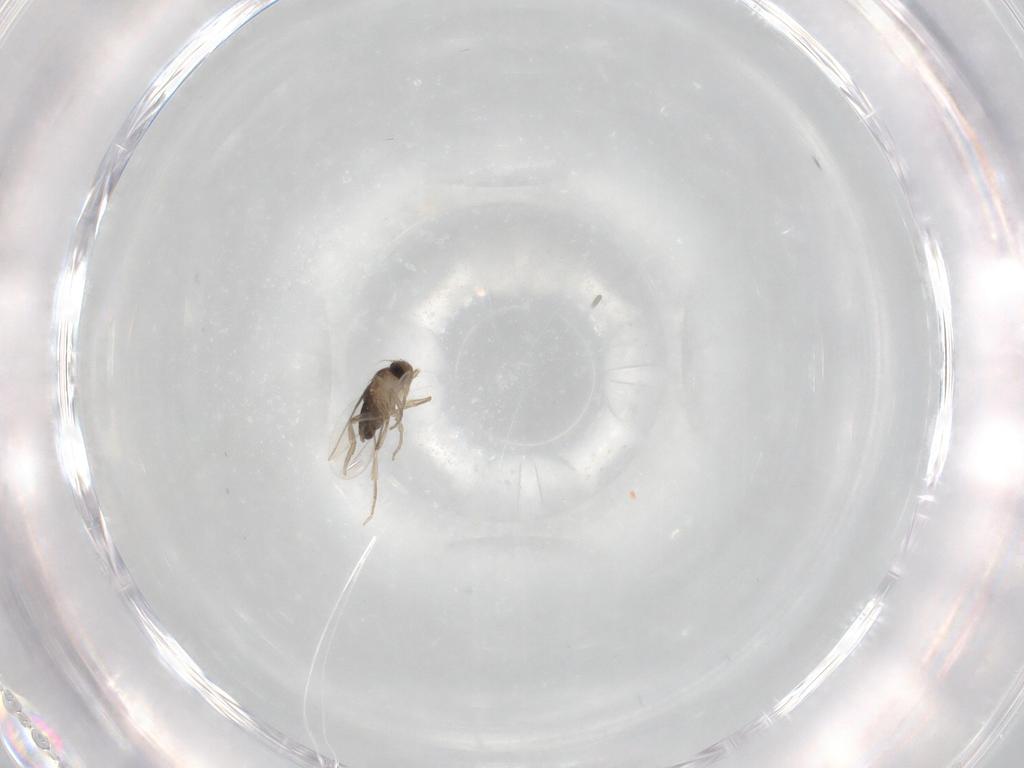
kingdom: Animalia
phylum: Arthropoda
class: Insecta
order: Diptera
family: Phoridae
